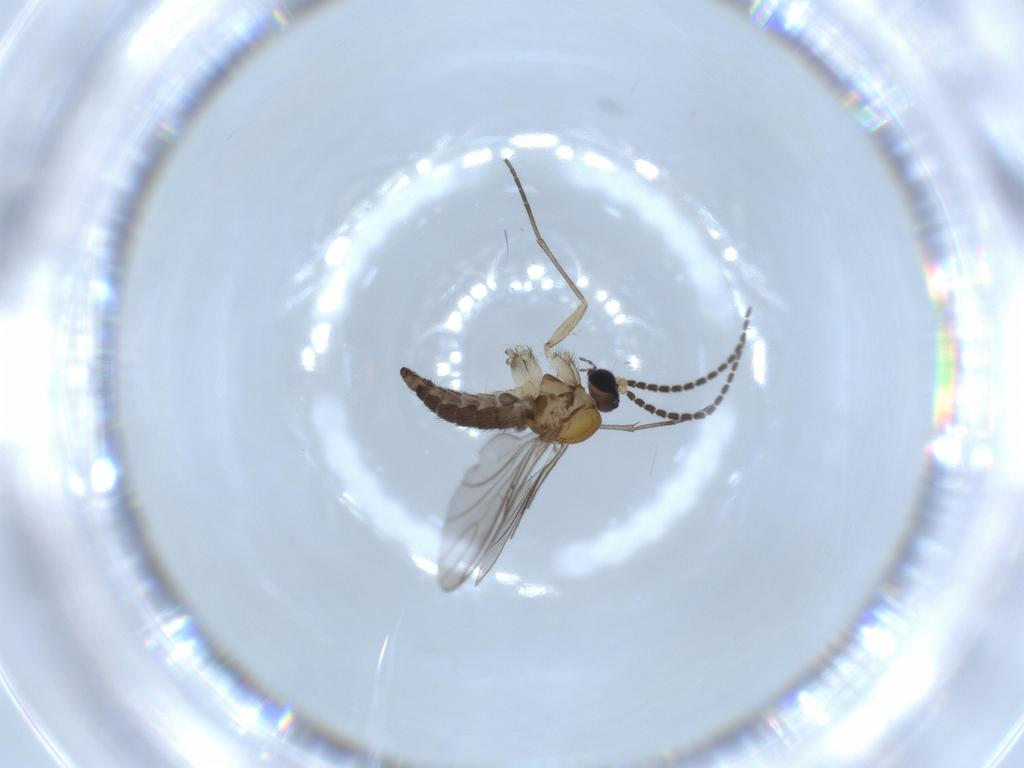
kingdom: Animalia
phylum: Arthropoda
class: Insecta
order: Diptera
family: Sciaridae
